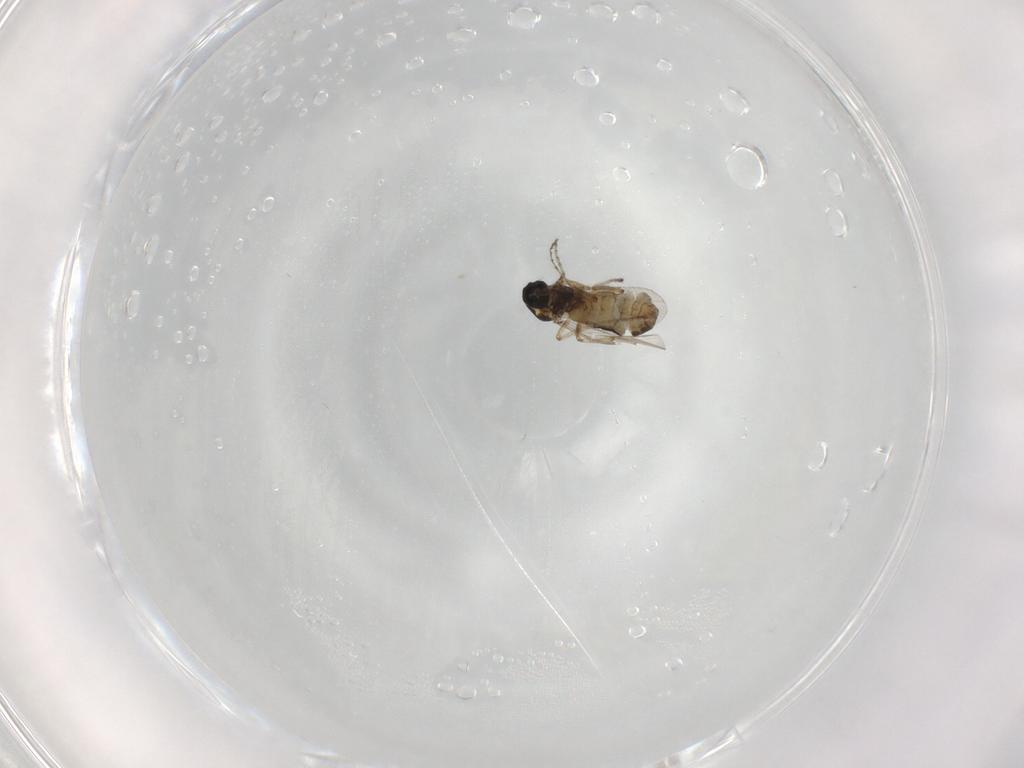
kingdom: Animalia
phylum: Arthropoda
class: Insecta
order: Diptera
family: Ceratopogonidae
